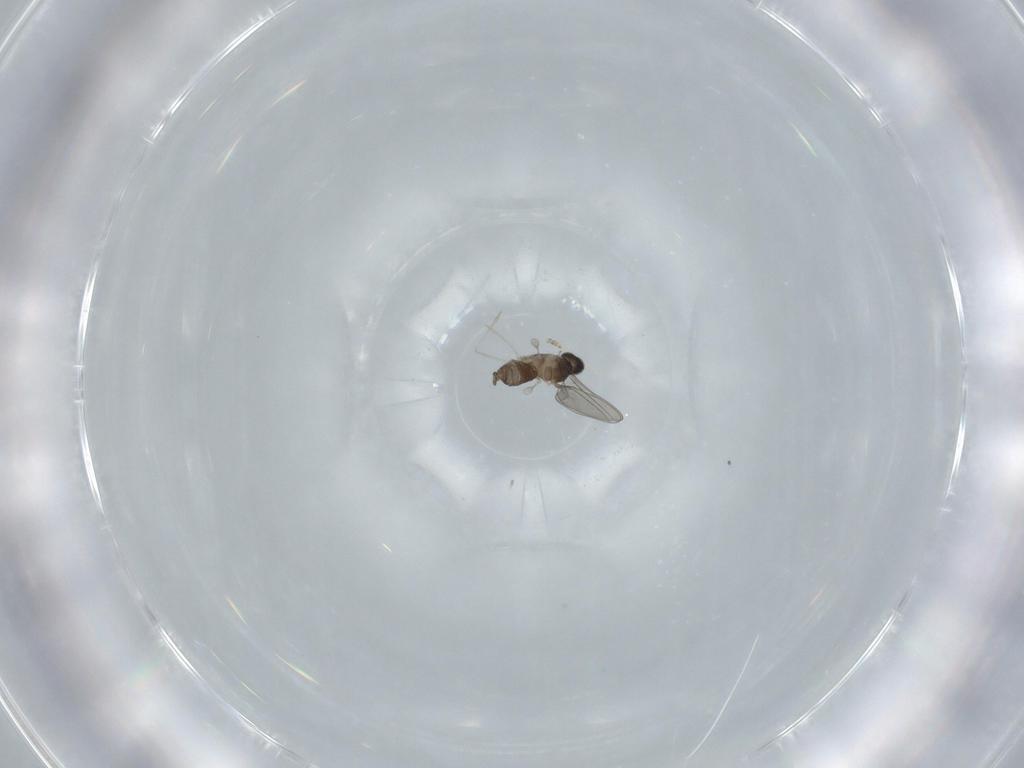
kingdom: Animalia
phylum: Arthropoda
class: Insecta
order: Diptera
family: Cecidomyiidae
